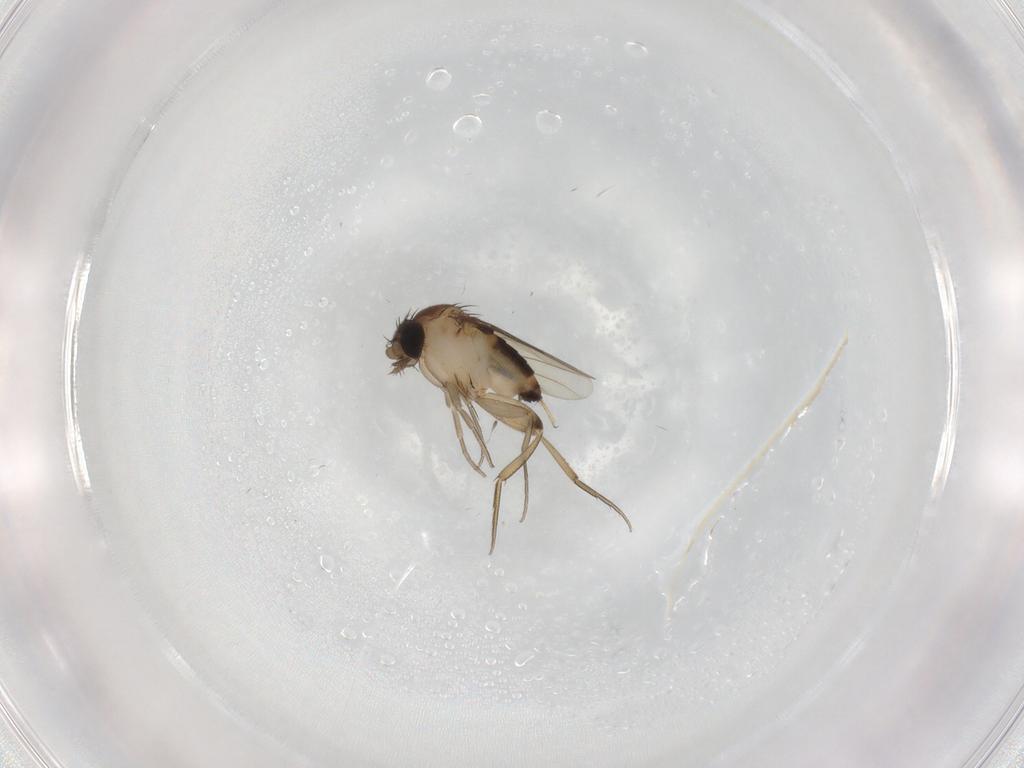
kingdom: Animalia
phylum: Arthropoda
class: Insecta
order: Diptera
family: Phoridae
